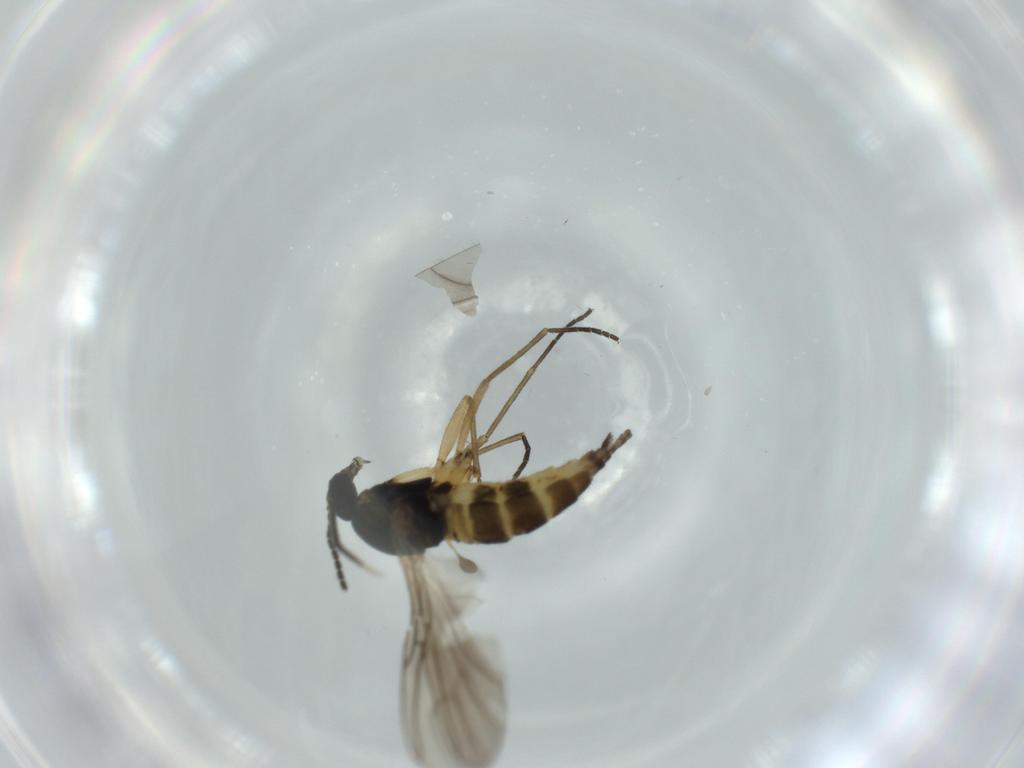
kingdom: Animalia
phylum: Arthropoda
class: Insecta
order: Diptera
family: Sciaridae
